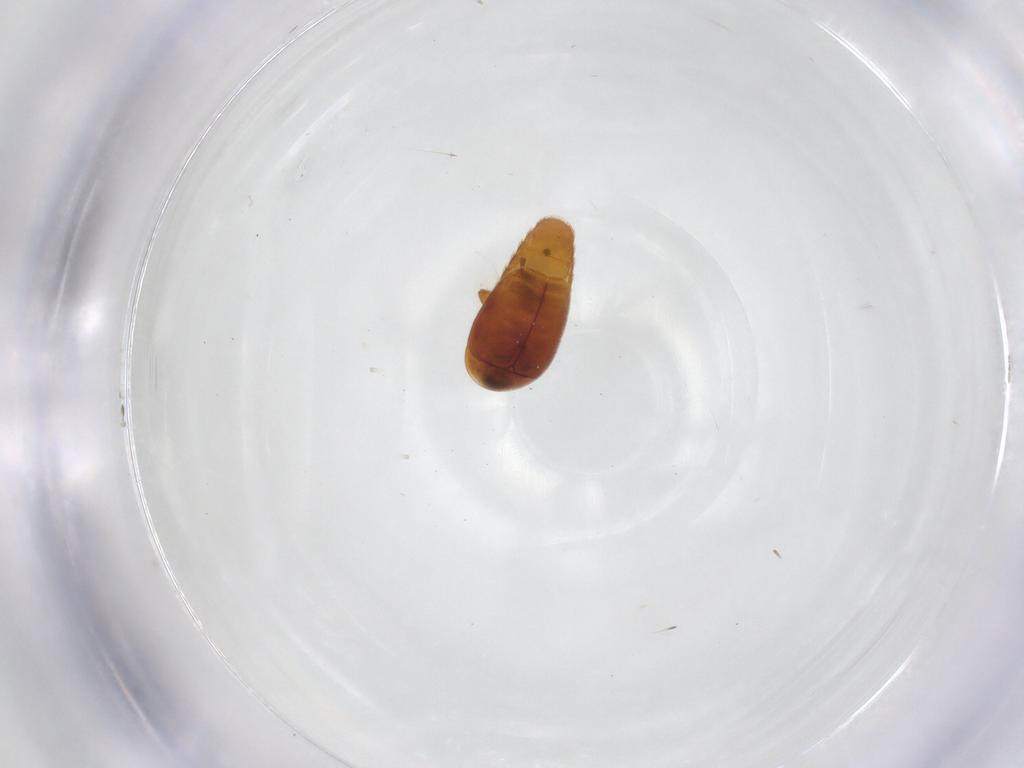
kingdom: Animalia
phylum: Arthropoda
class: Insecta
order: Coleoptera
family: Corylophidae
